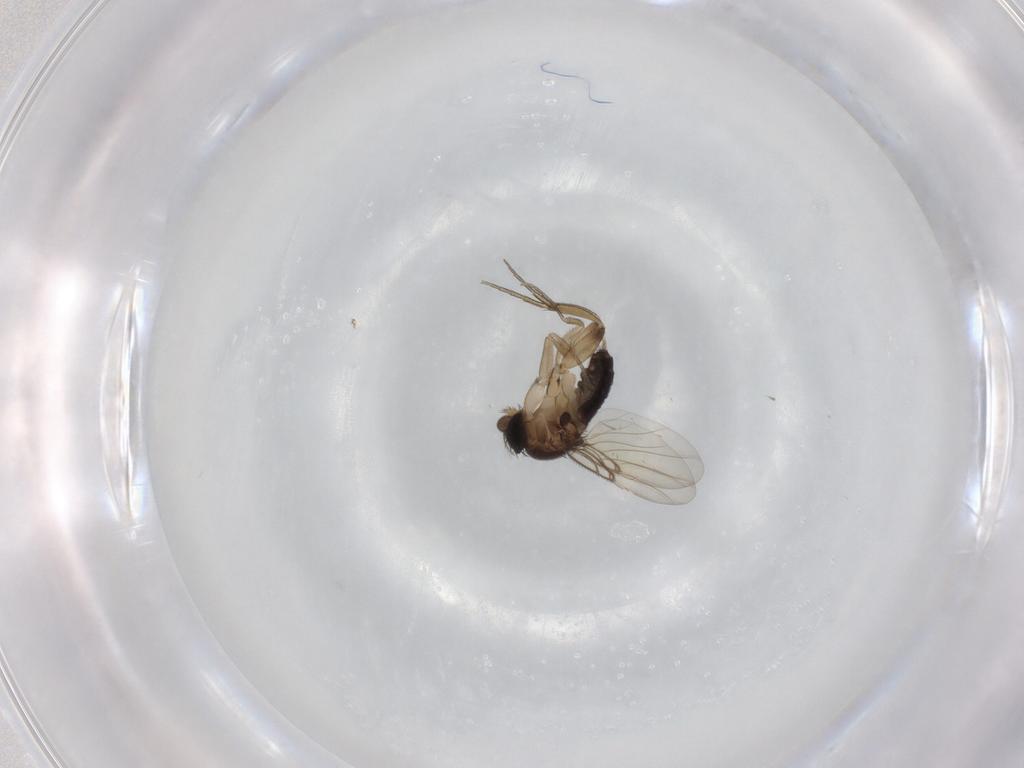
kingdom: Animalia
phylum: Arthropoda
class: Insecta
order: Diptera
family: Phoridae
